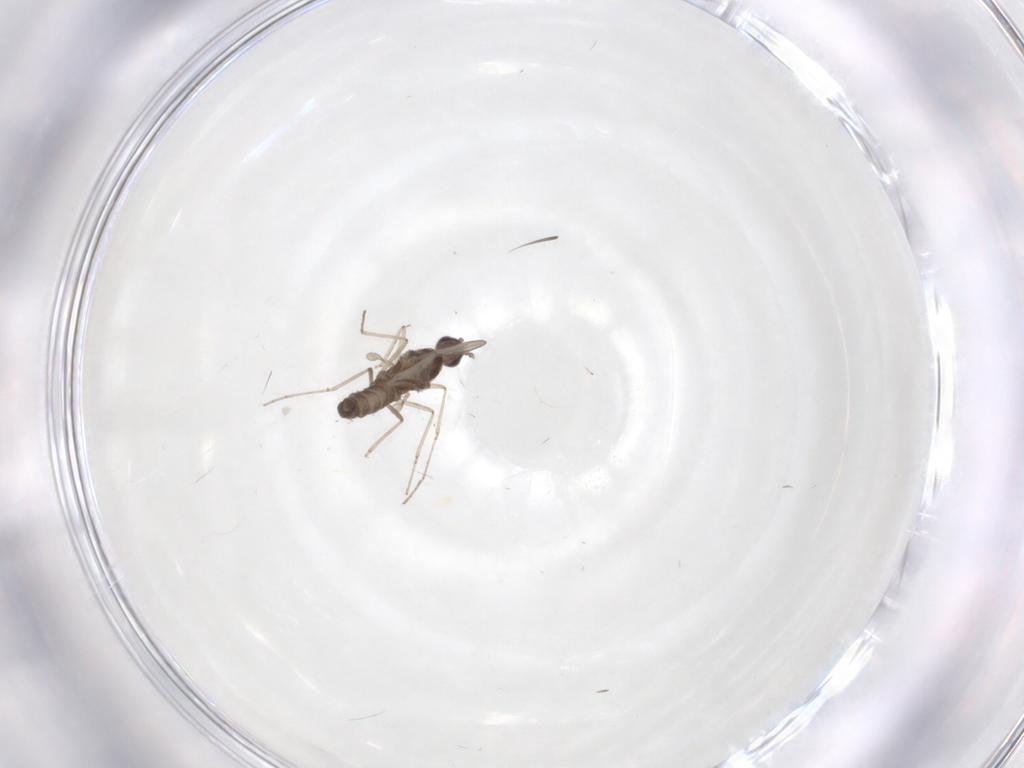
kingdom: Animalia
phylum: Arthropoda
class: Insecta
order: Diptera
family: Cecidomyiidae
